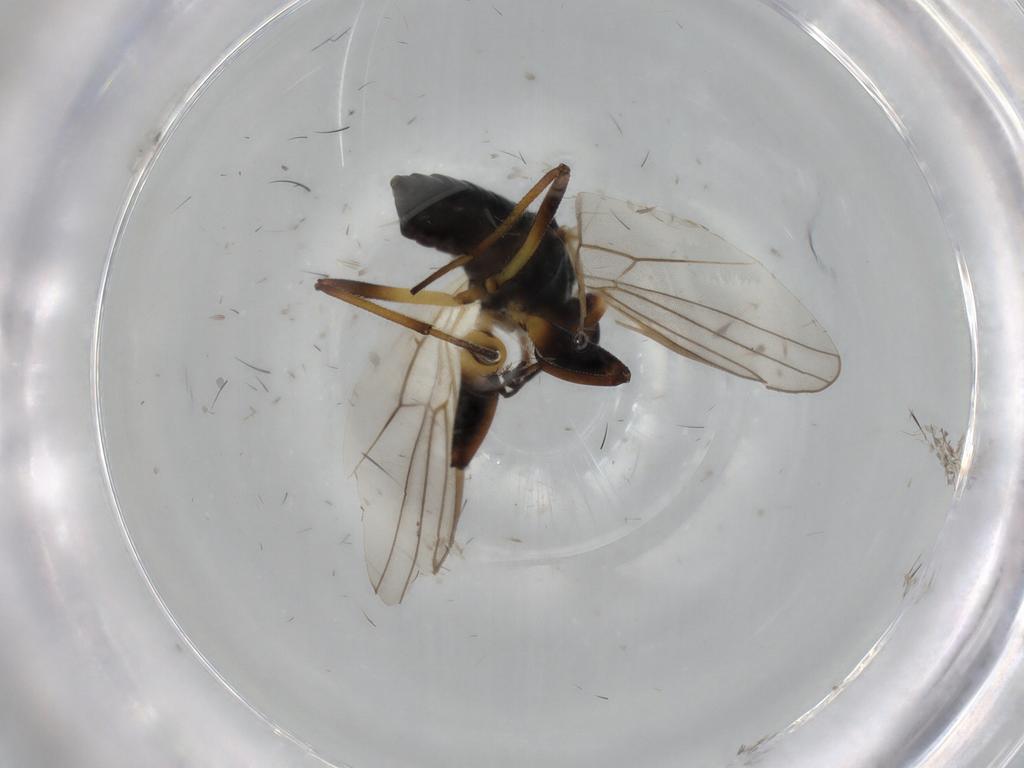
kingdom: Animalia
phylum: Arthropoda
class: Insecta
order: Diptera
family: Hybotidae
